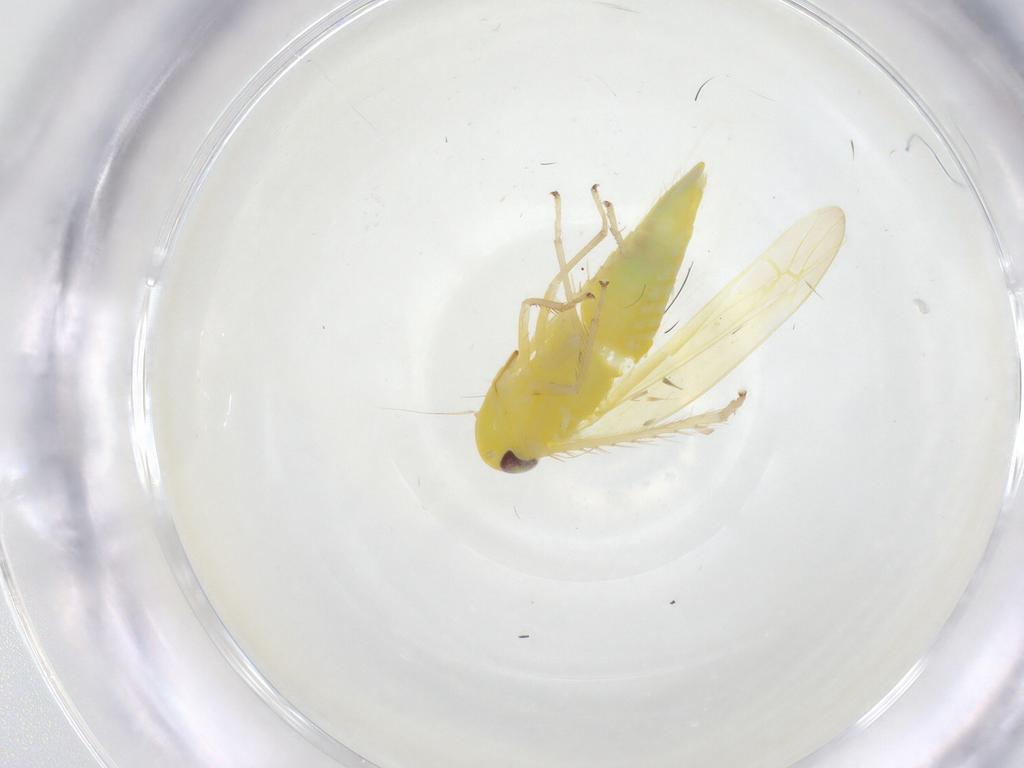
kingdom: Animalia
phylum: Arthropoda
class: Insecta
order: Hemiptera
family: Cicadellidae
